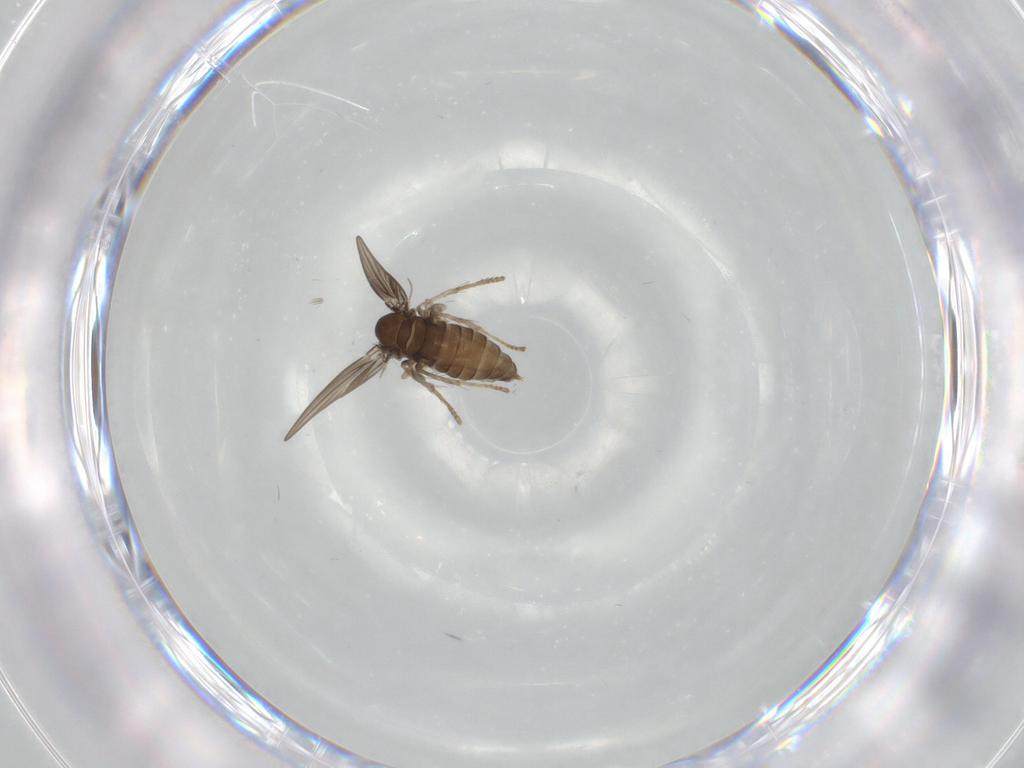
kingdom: Animalia
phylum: Arthropoda
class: Insecta
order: Diptera
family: Psychodidae
